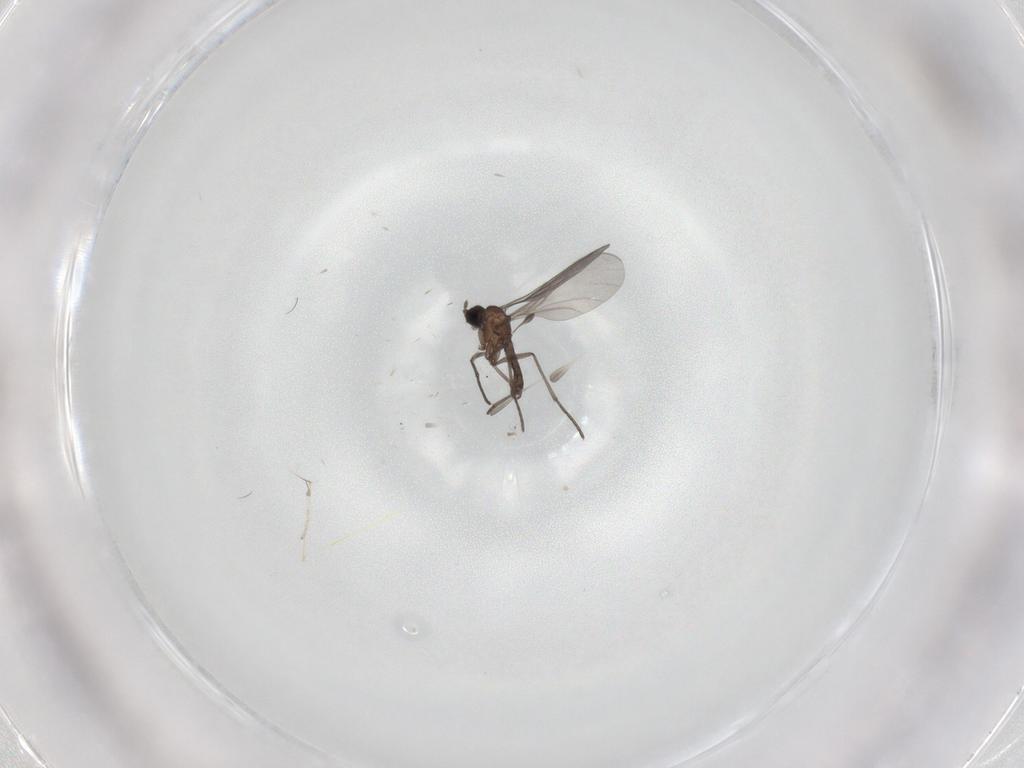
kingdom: Animalia
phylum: Arthropoda
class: Insecta
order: Diptera
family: Cecidomyiidae
